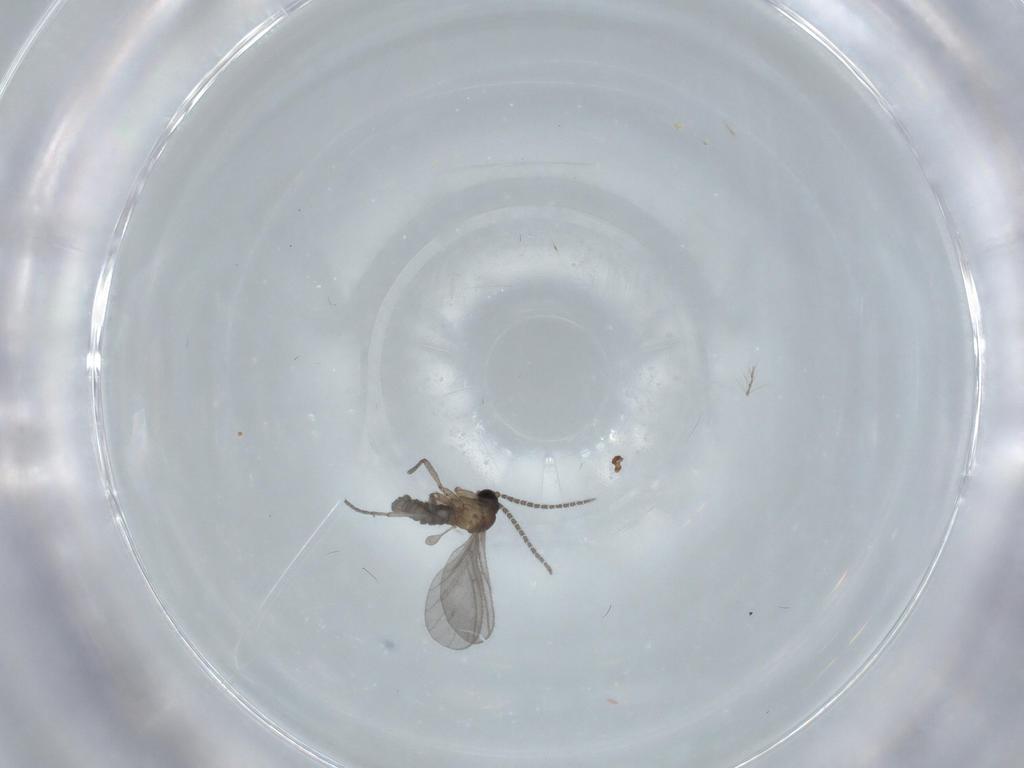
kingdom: Animalia
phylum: Arthropoda
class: Insecta
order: Diptera
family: Sciaridae
